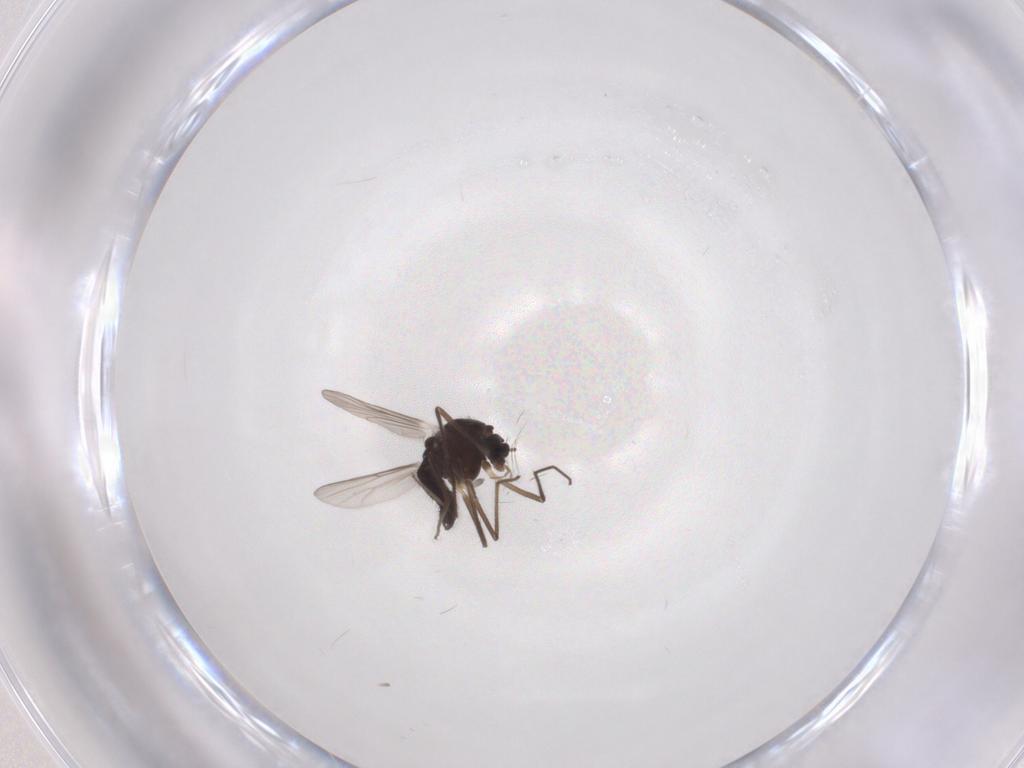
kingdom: Animalia
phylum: Arthropoda
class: Insecta
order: Diptera
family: Chironomidae
